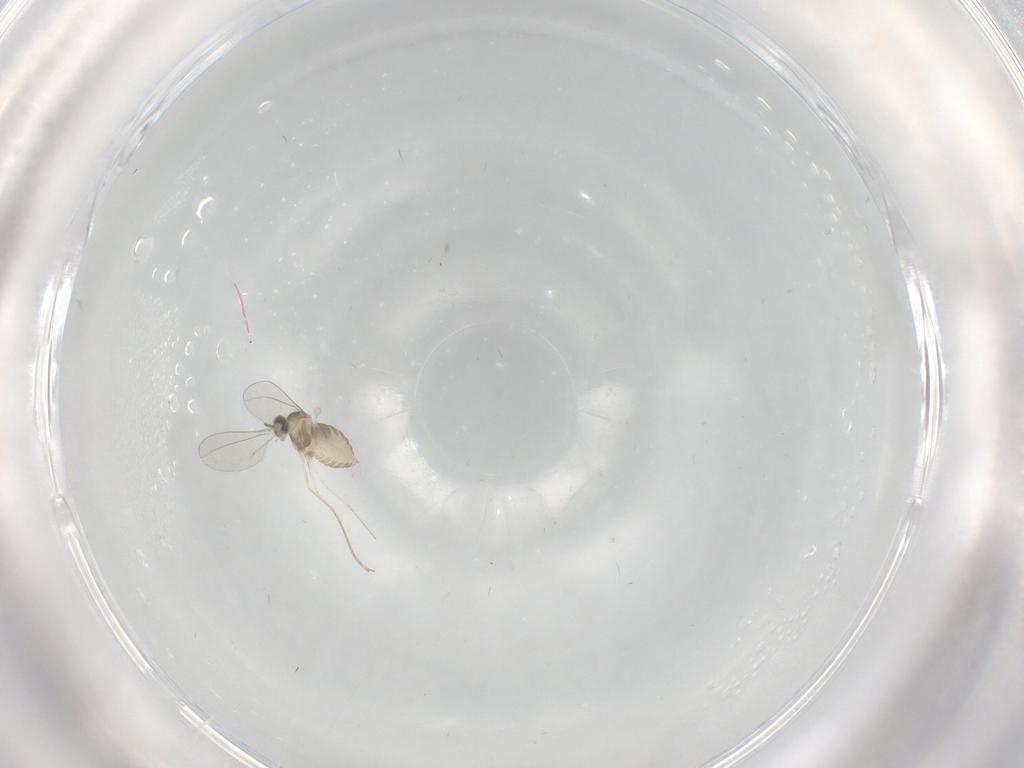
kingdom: Animalia
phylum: Arthropoda
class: Insecta
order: Diptera
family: Cecidomyiidae
